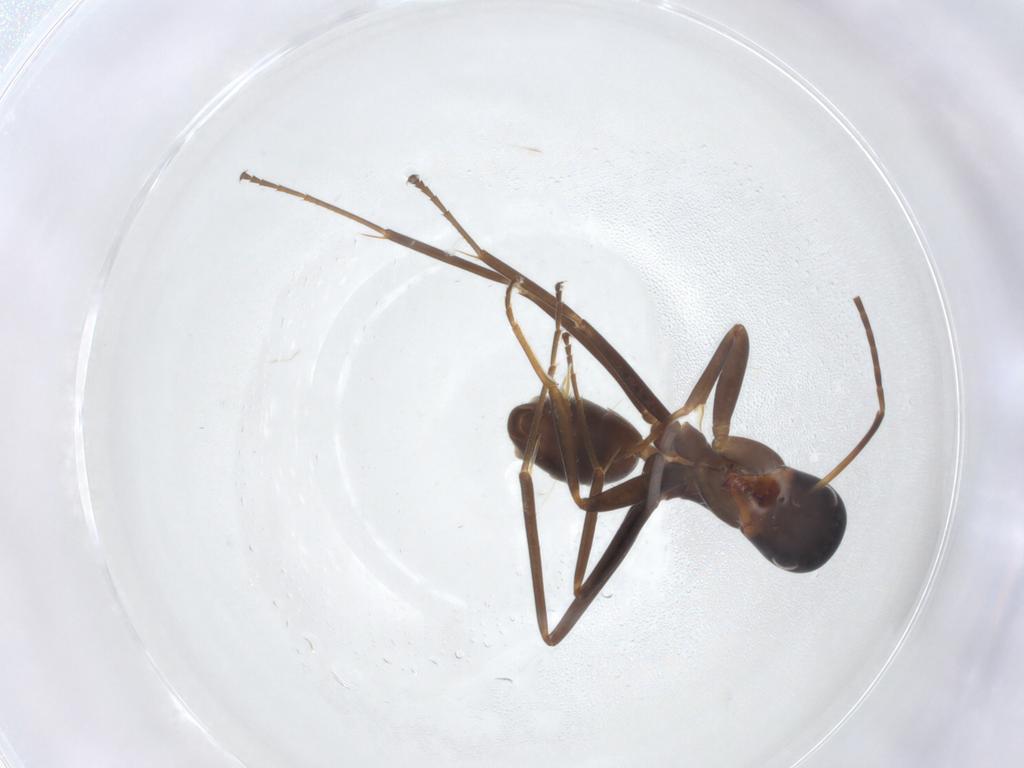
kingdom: Animalia
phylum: Arthropoda
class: Insecta
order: Hymenoptera
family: Formicidae
